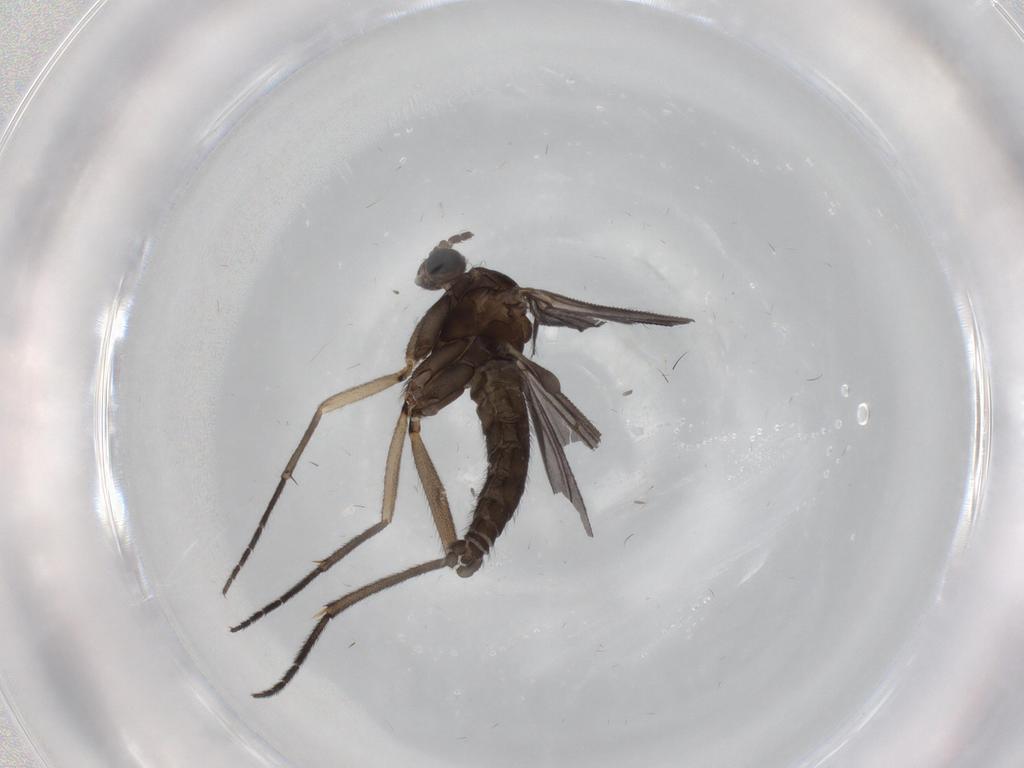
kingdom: Animalia
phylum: Arthropoda
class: Insecta
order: Diptera
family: Sciaridae
